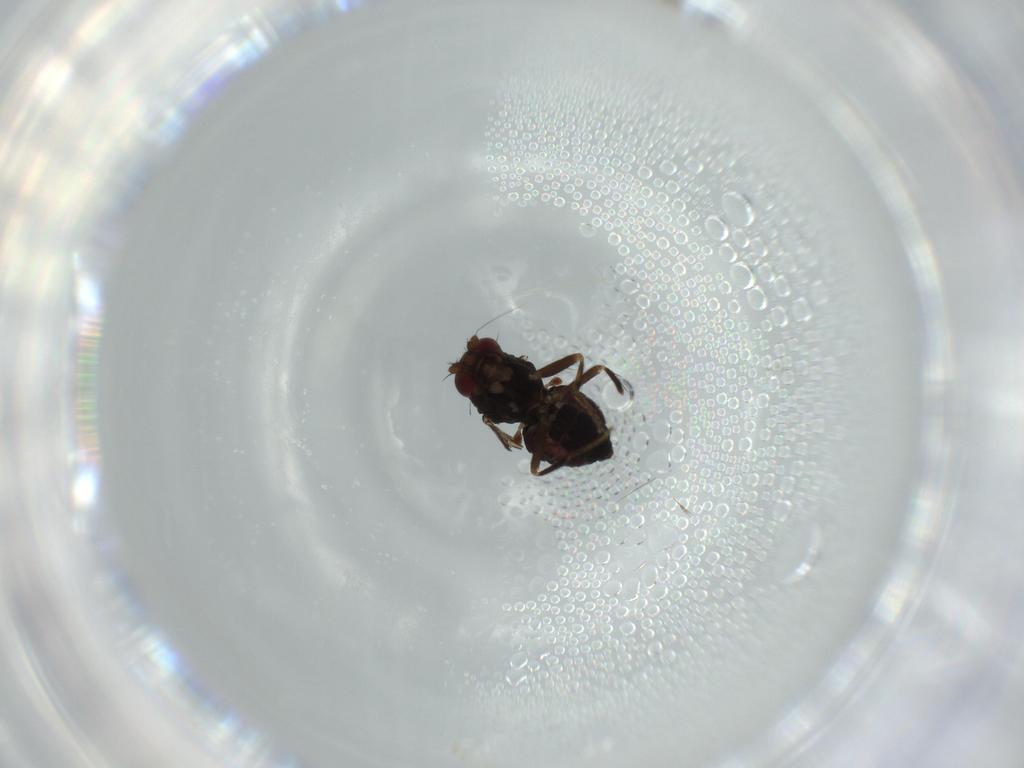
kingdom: Animalia
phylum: Arthropoda
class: Insecta
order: Diptera
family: Sphaeroceridae
